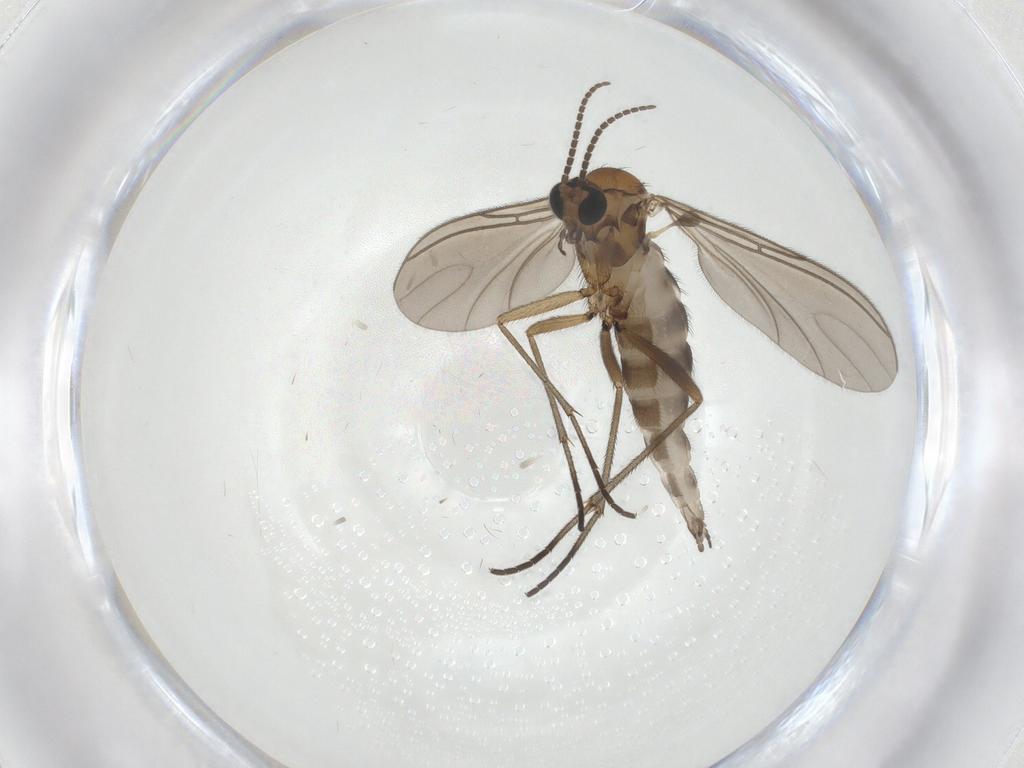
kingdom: Animalia
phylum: Arthropoda
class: Insecta
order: Diptera
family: Sciaridae
